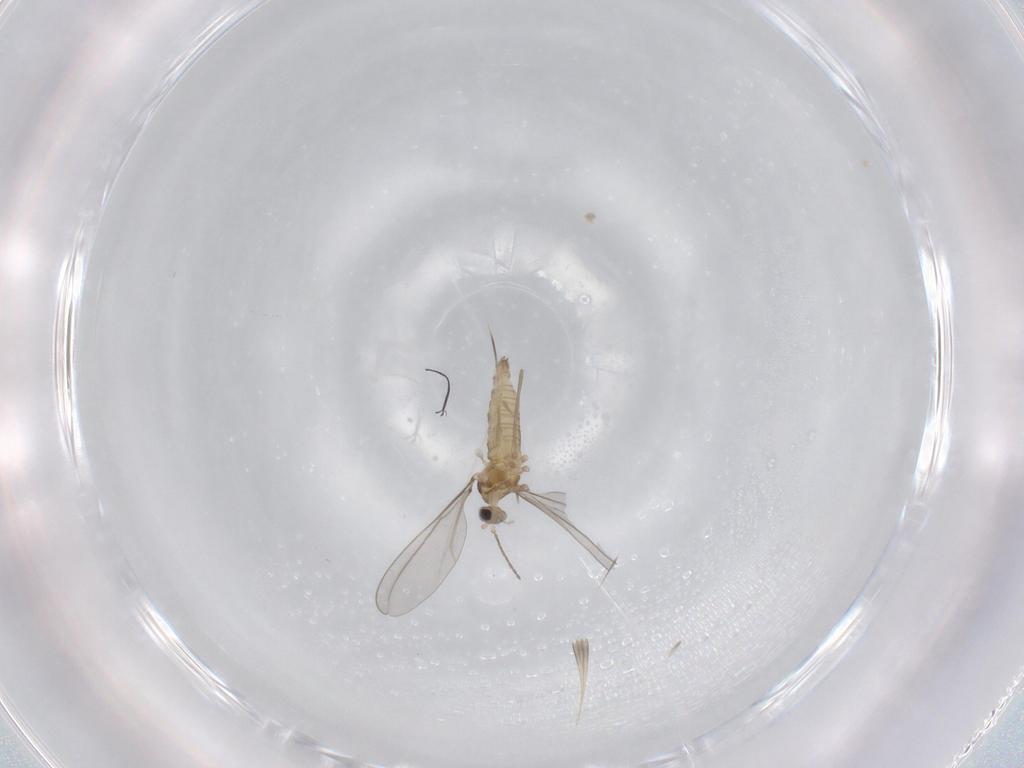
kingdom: Animalia
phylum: Arthropoda
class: Insecta
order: Diptera
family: Cecidomyiidae
